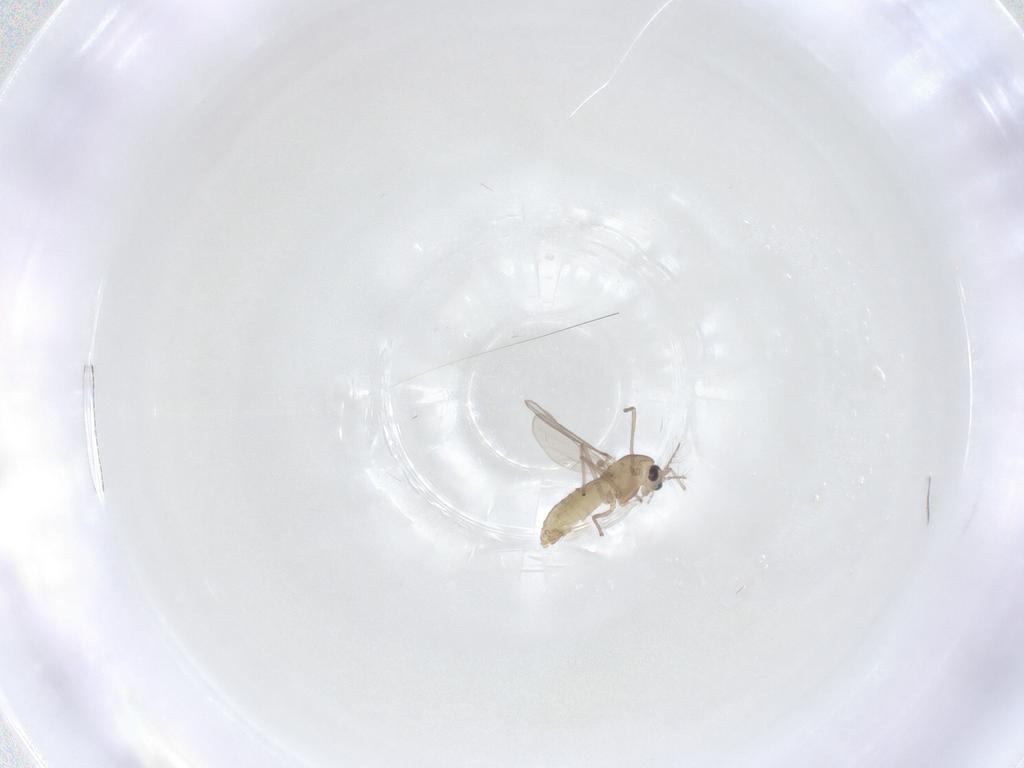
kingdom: Animalia
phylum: Arthropoda
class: Insecta
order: Diptera
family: Chironomidae
